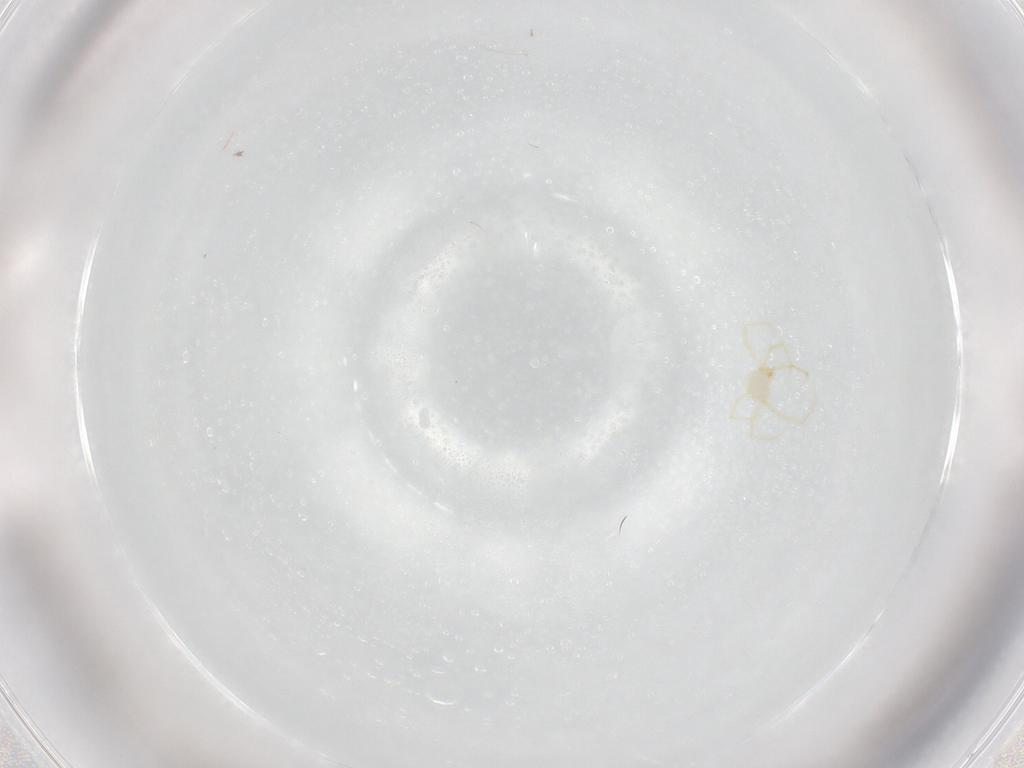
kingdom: Animalia
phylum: Arthropoda
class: Arachnida
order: Trombidiformes
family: Erythraeidae
